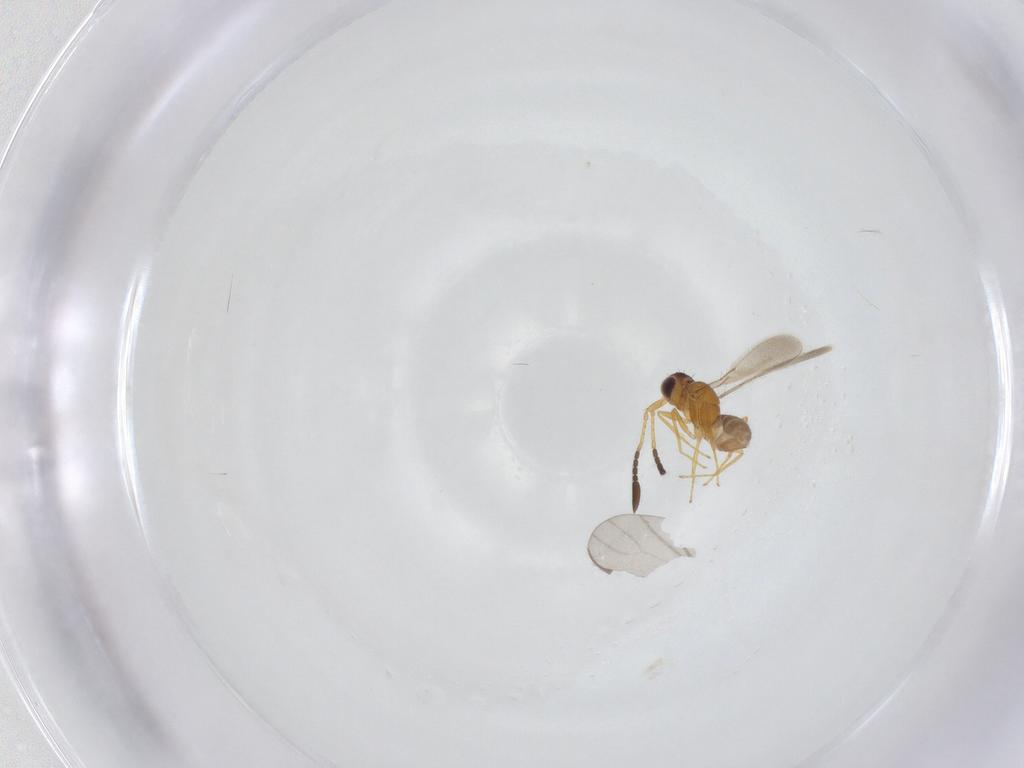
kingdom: Animalia
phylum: Arthropoda
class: Insecta
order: Hymenoptera
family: Mymaridae
